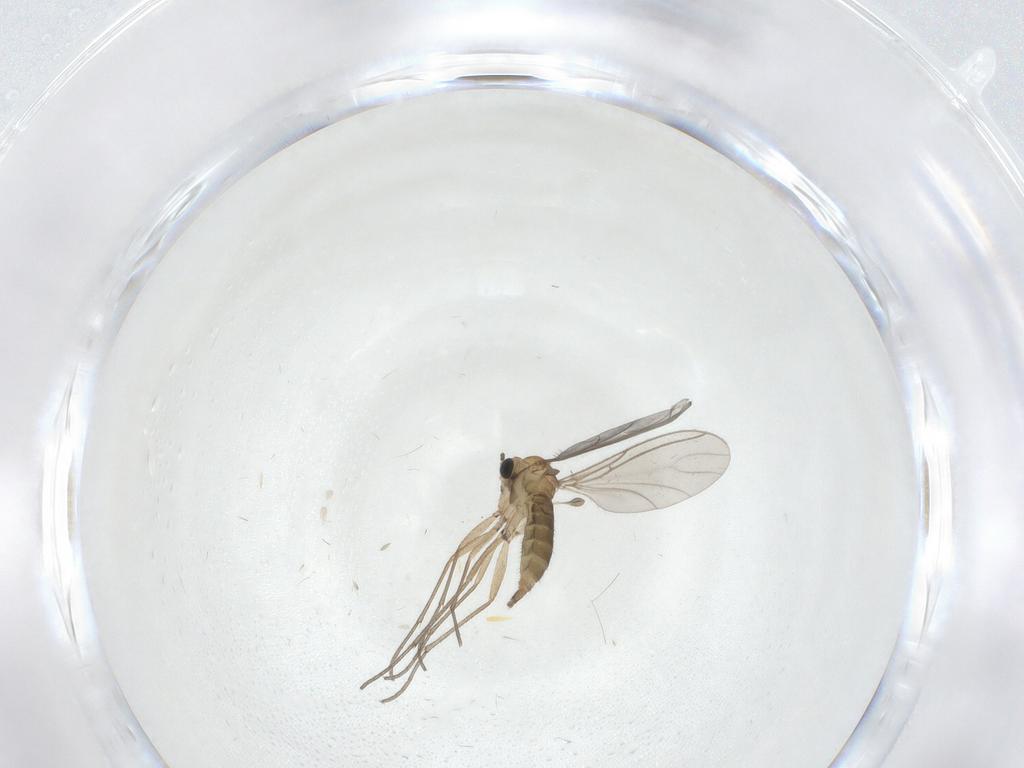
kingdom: Animalia
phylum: Arthropoda
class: Insecta
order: Diptera
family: Sciaridae
